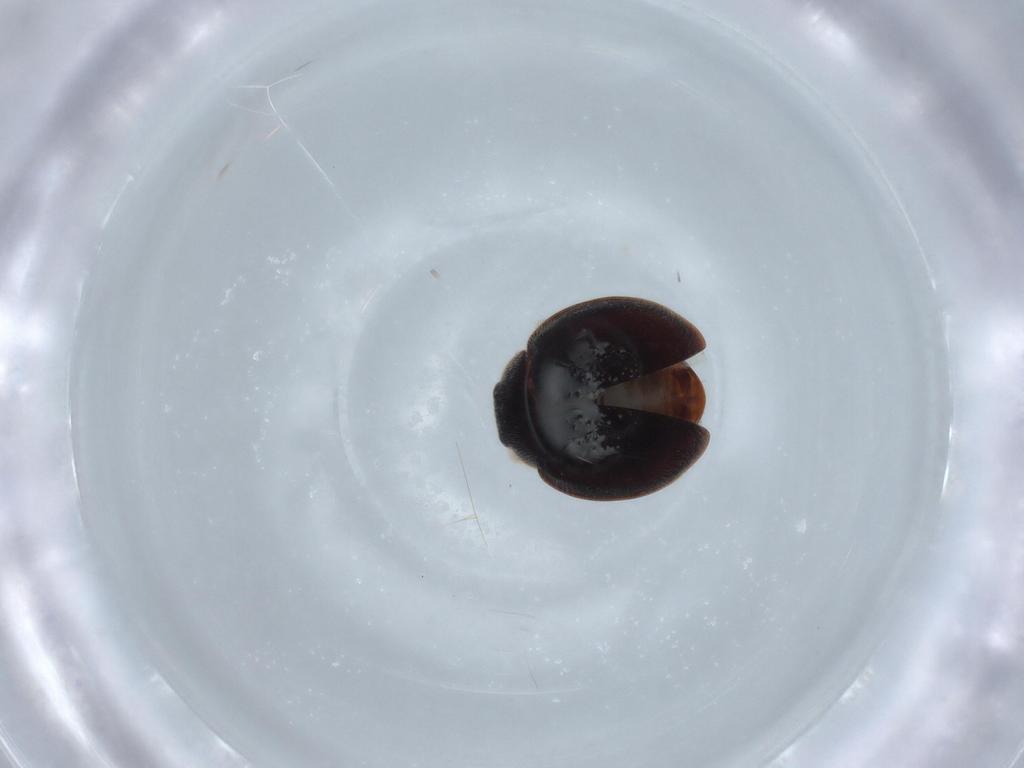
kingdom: Animalia
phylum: Arthropoda
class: Insecta
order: Coleoptera
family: Coccinellidae
